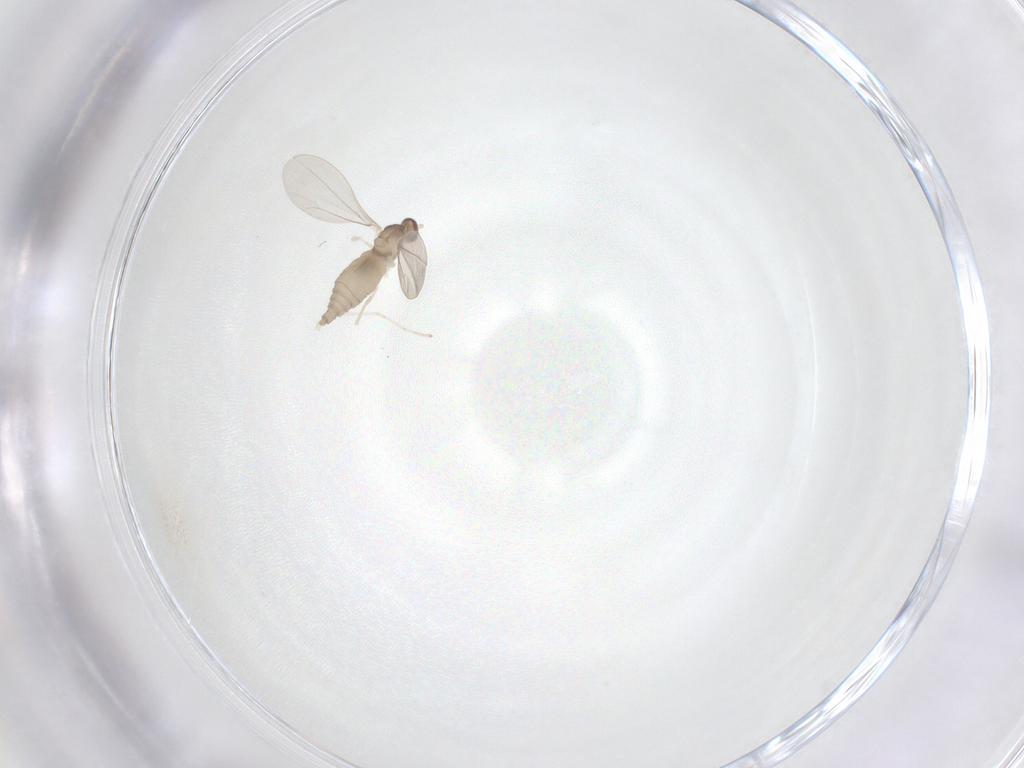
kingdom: Animalia
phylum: Arthropoda
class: Insecta
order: Diptera
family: Cecidomyiidae
